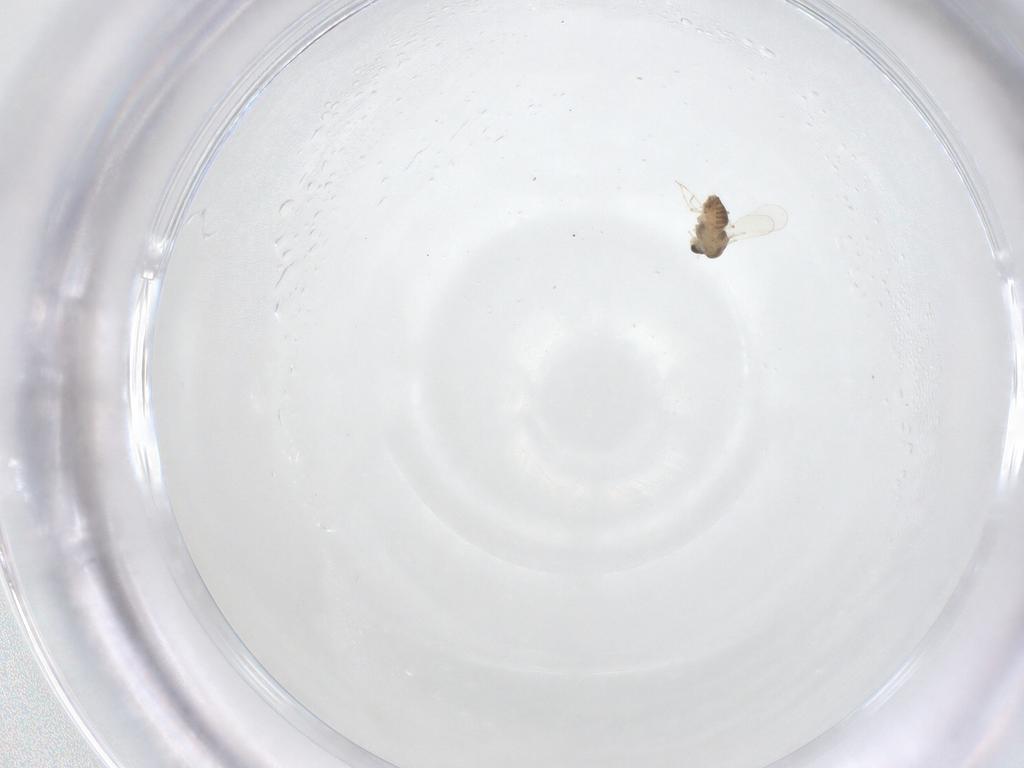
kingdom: Animalia
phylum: Arthropoda
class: Insecta
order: Diptera
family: Chironomidae
